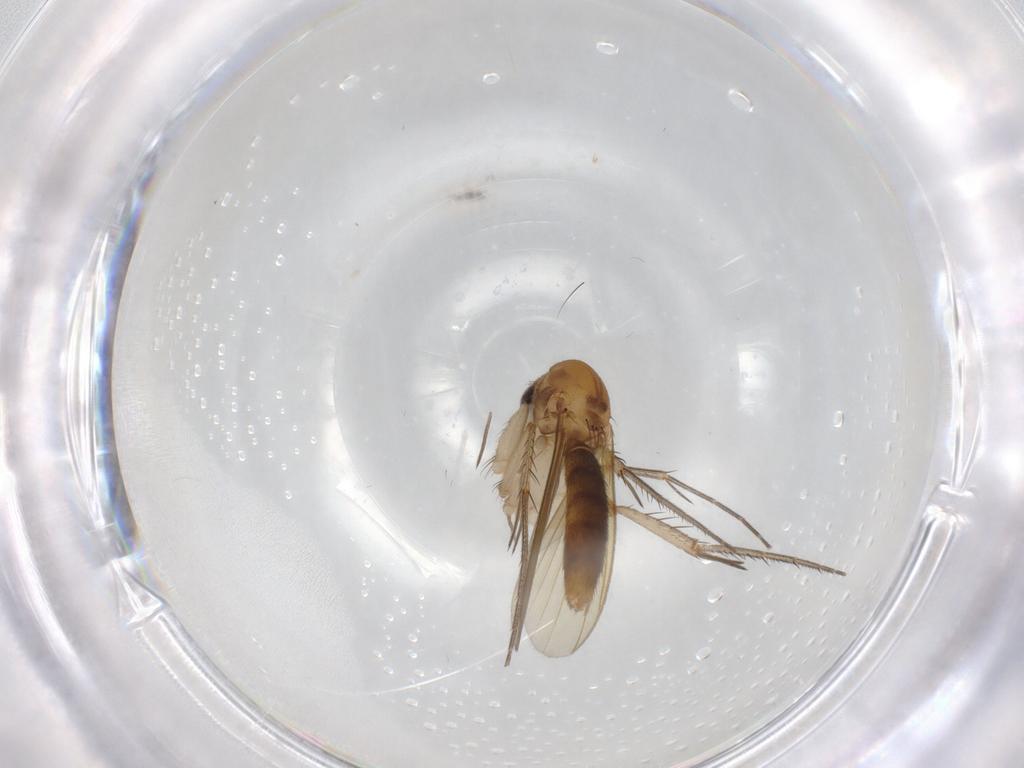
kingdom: Animalia
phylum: Arthropoda
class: Insecta
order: Diptera
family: Mycetophilidae
